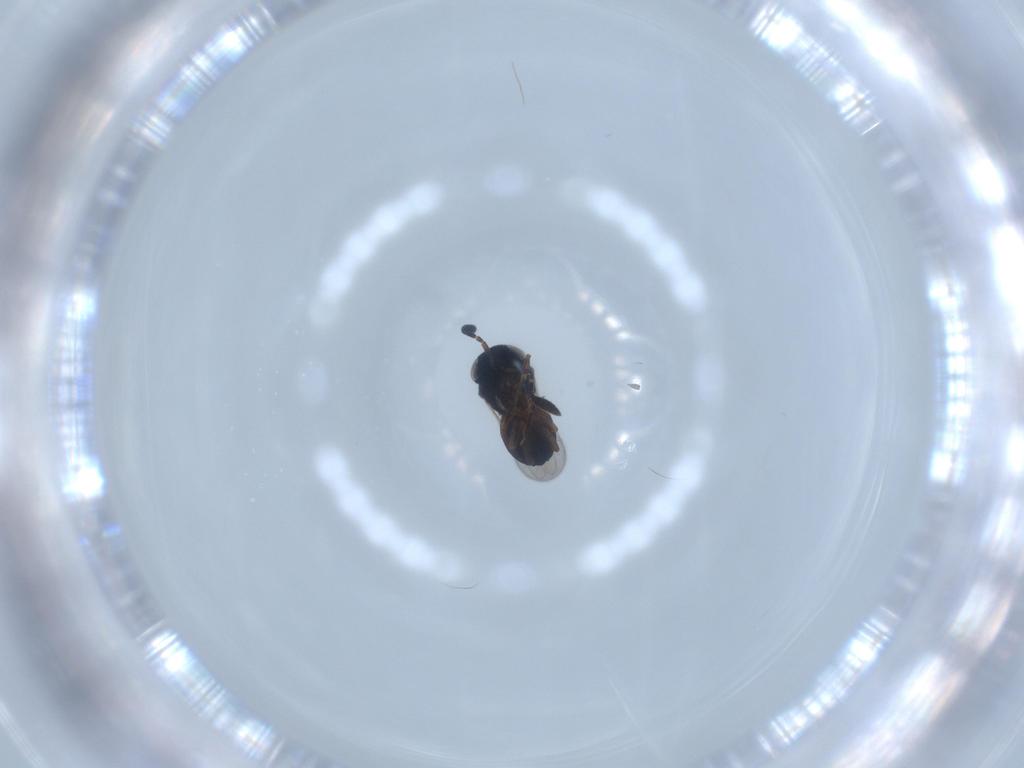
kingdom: Animalia
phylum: Arthropoda
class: Insecta
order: Hymenoptera
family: Scelionidae
